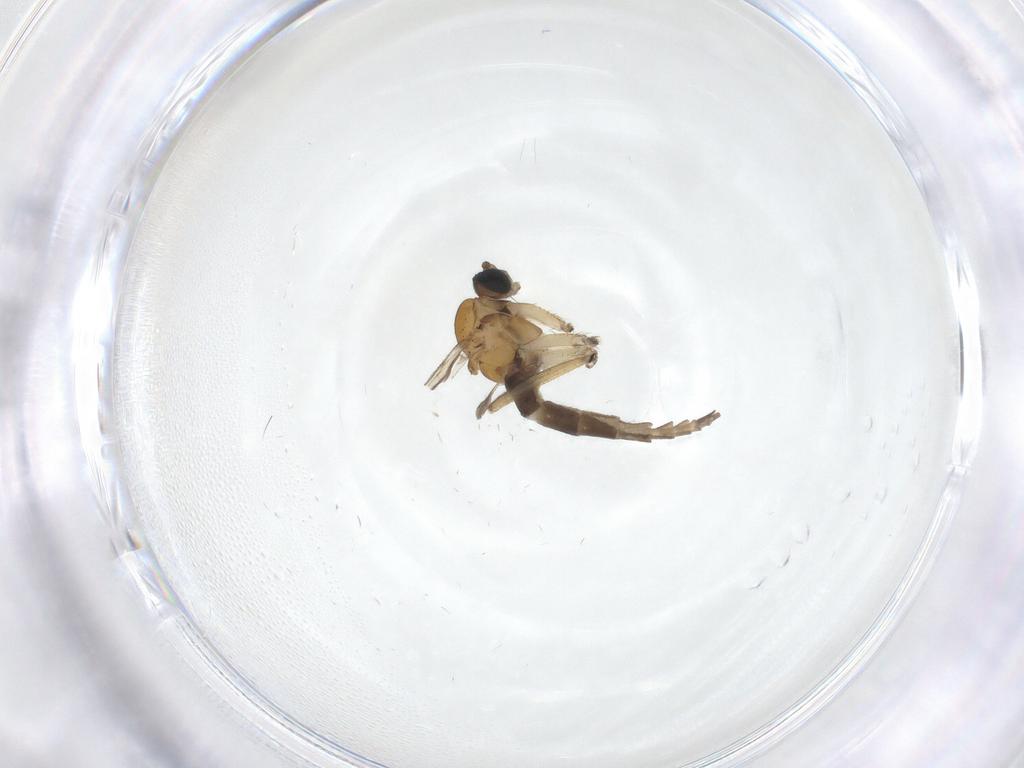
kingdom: Animalia
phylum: Arthropoda
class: Insecta
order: Diptera
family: Sciaridae
